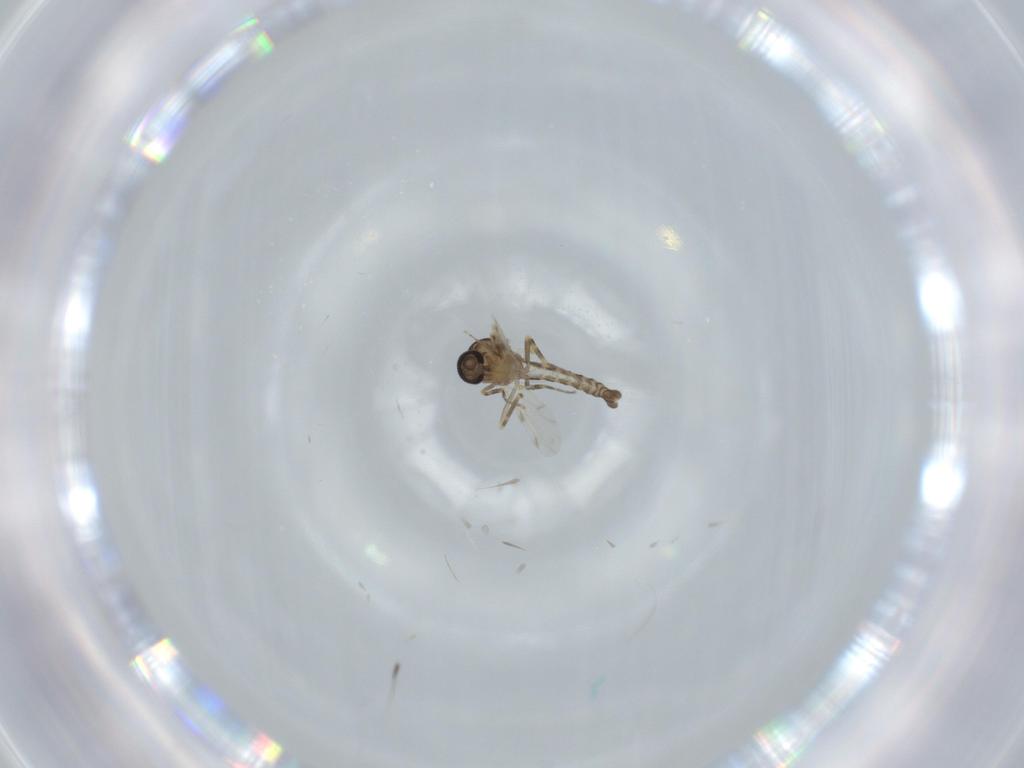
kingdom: Animalia
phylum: Arthropoda
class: Insecta
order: Diptera
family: Ceratopogonidae
